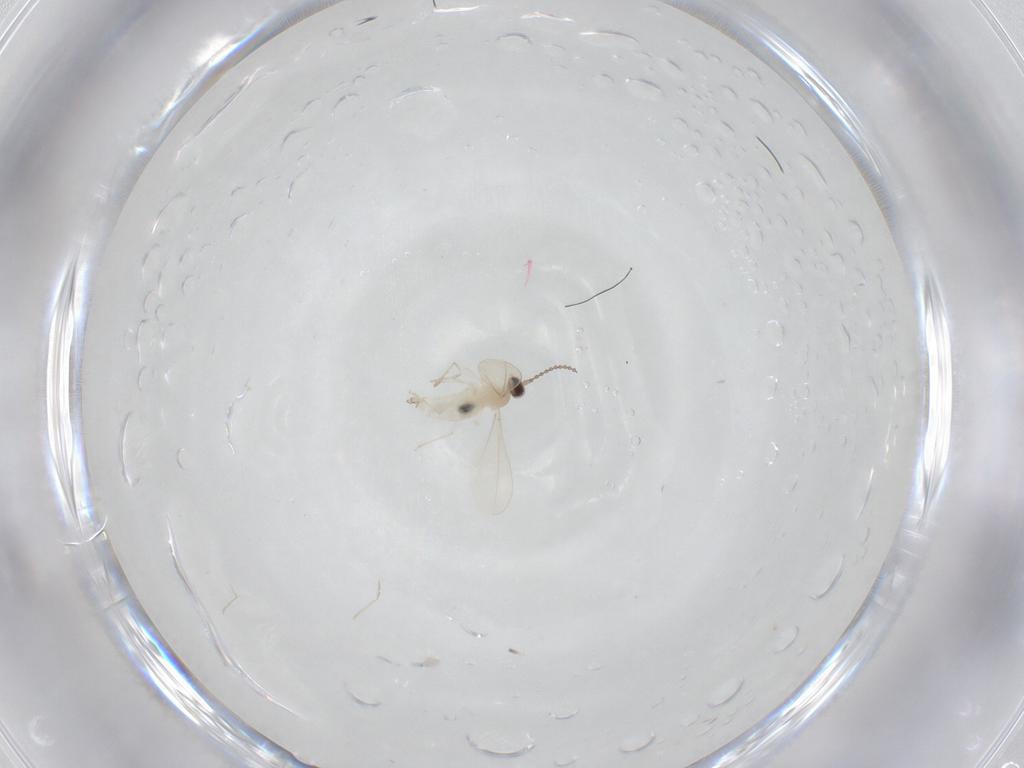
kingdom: Animalia
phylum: Arthropoda
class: Insecta
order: Diptera
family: Cecidomyiidae
